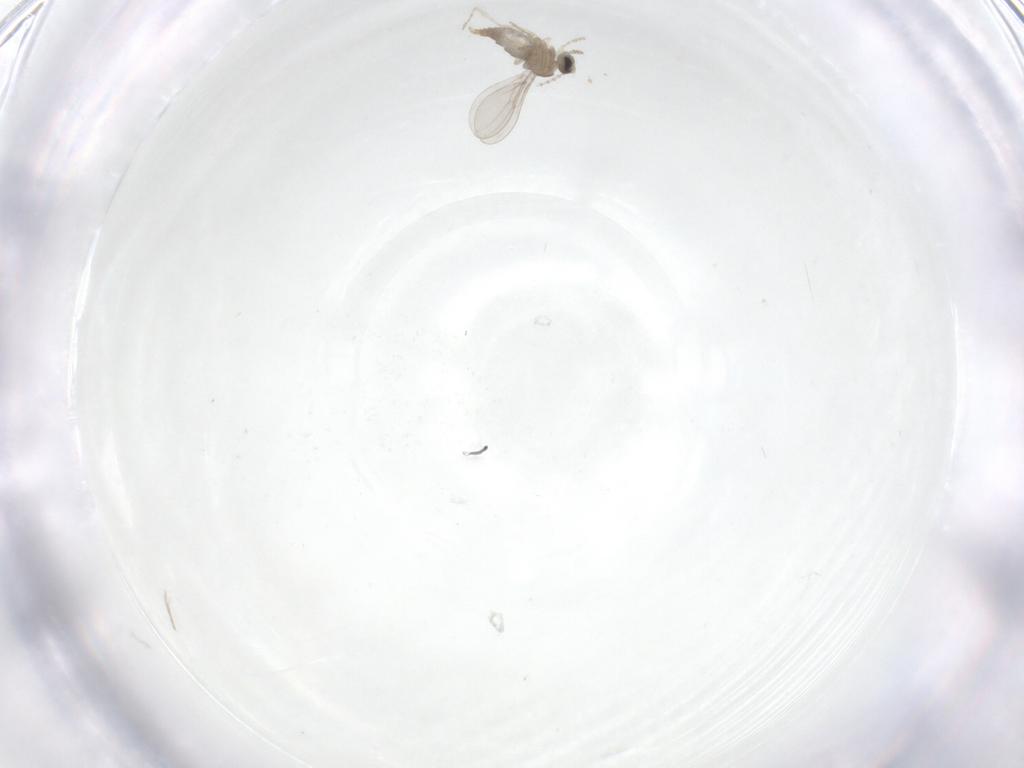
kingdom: Animalia
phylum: Arthropoda
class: Insecta
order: Diptera
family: Cecidomyiidae
